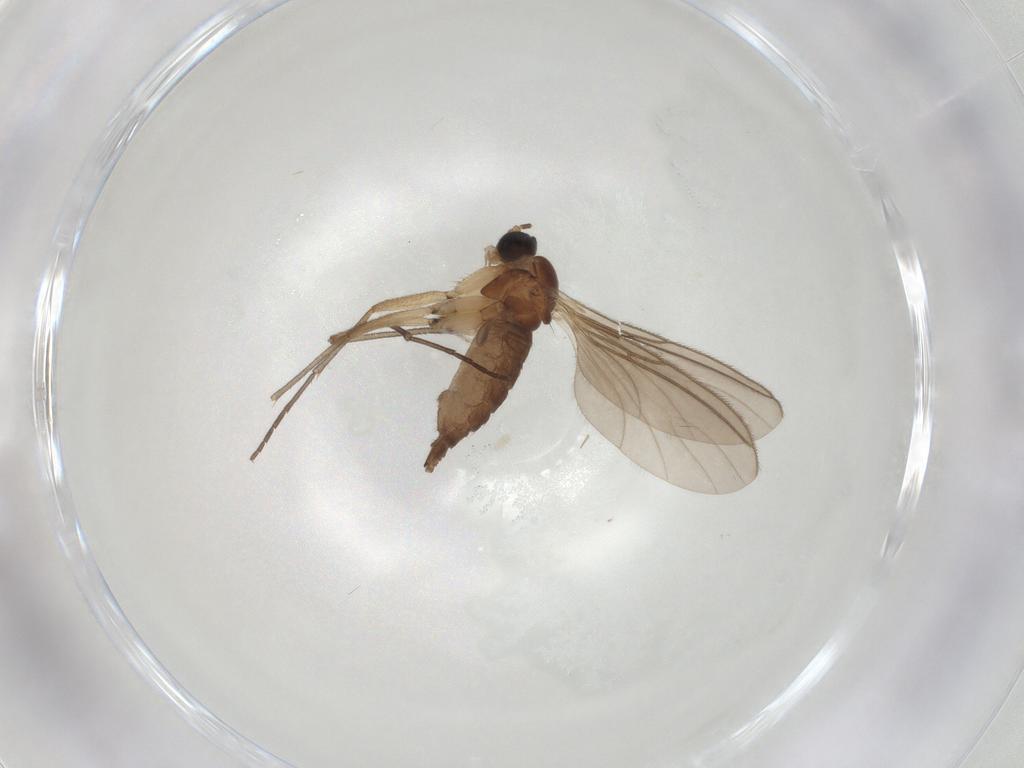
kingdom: Animalia
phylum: Arthropoda
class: Insecta
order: Diptera
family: Sciaridae
